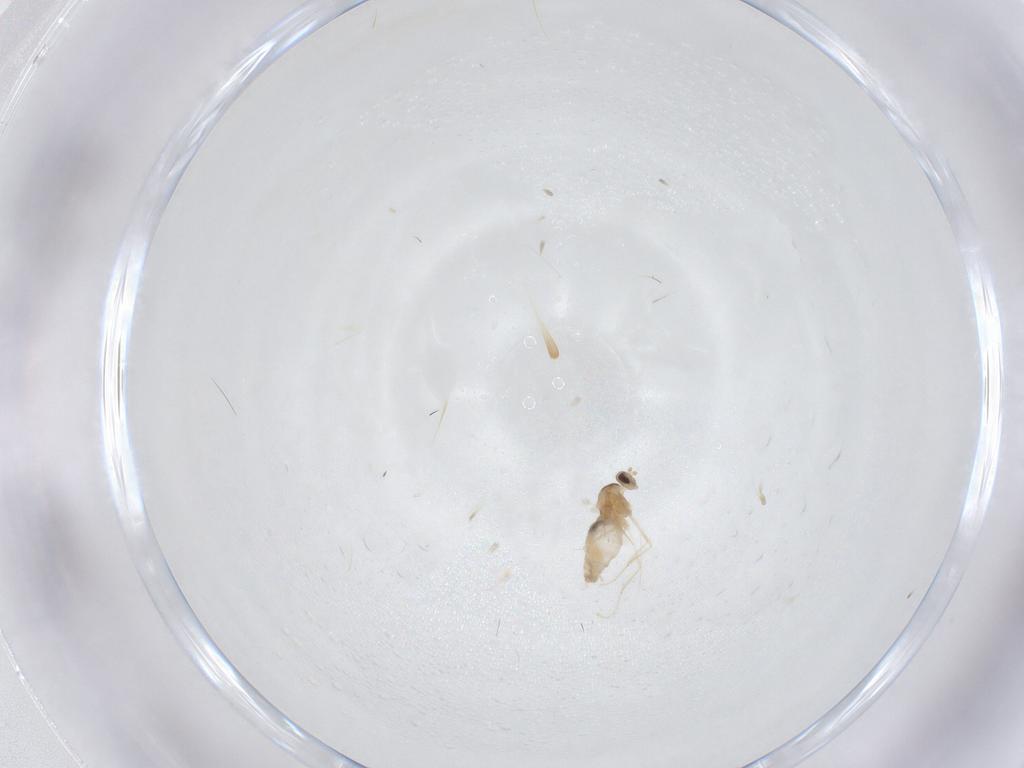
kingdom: Animalia
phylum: Arthropoda
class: Insecta
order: Diptera
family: Cecidomyiidae
